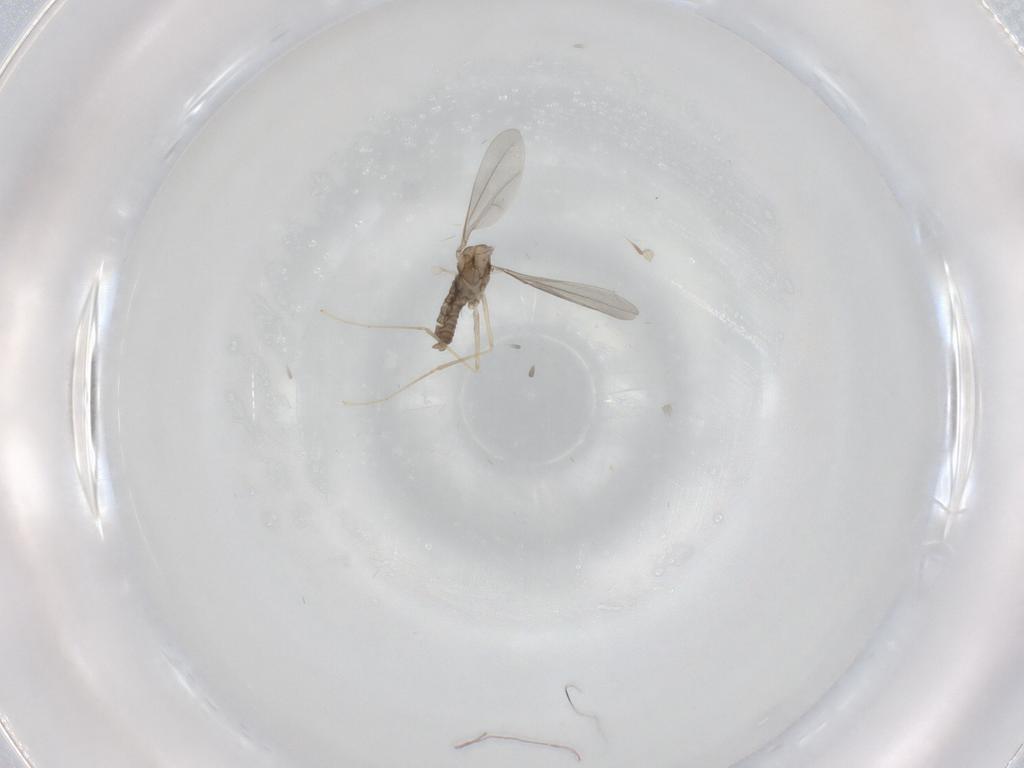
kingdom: Animalia
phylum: Arthropoda
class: Insecta
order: Diptera
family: Cecidomyiidae
